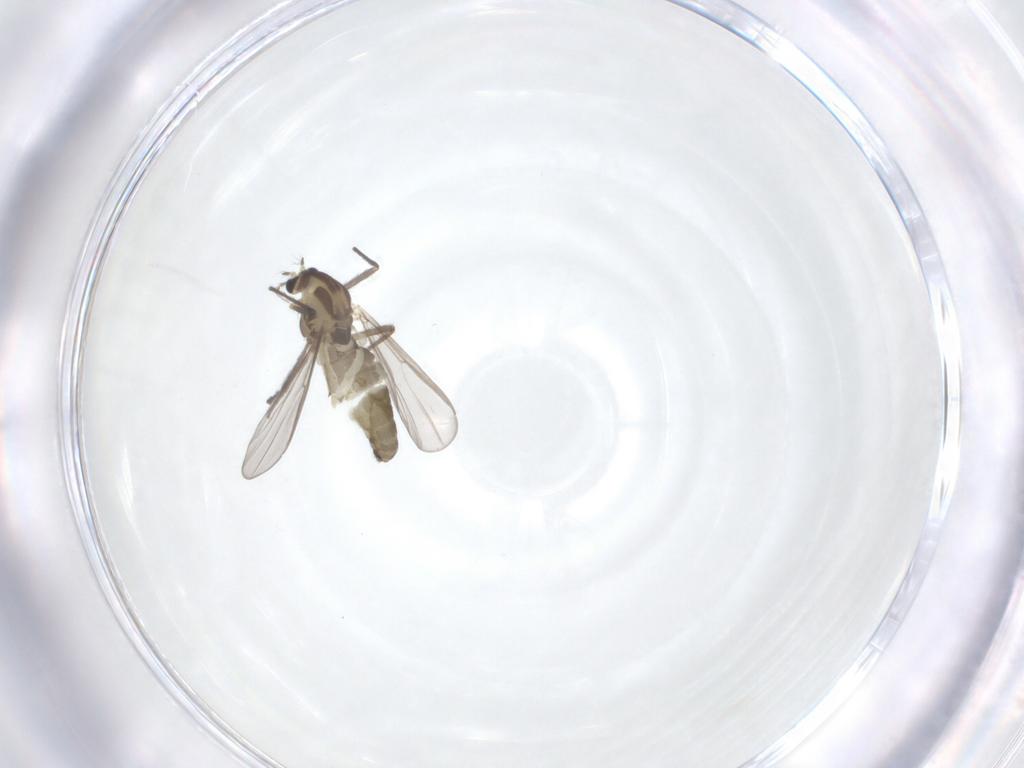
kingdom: Animalia
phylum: Arthropoda
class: Insecta
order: Diptera
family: Chironomidae
